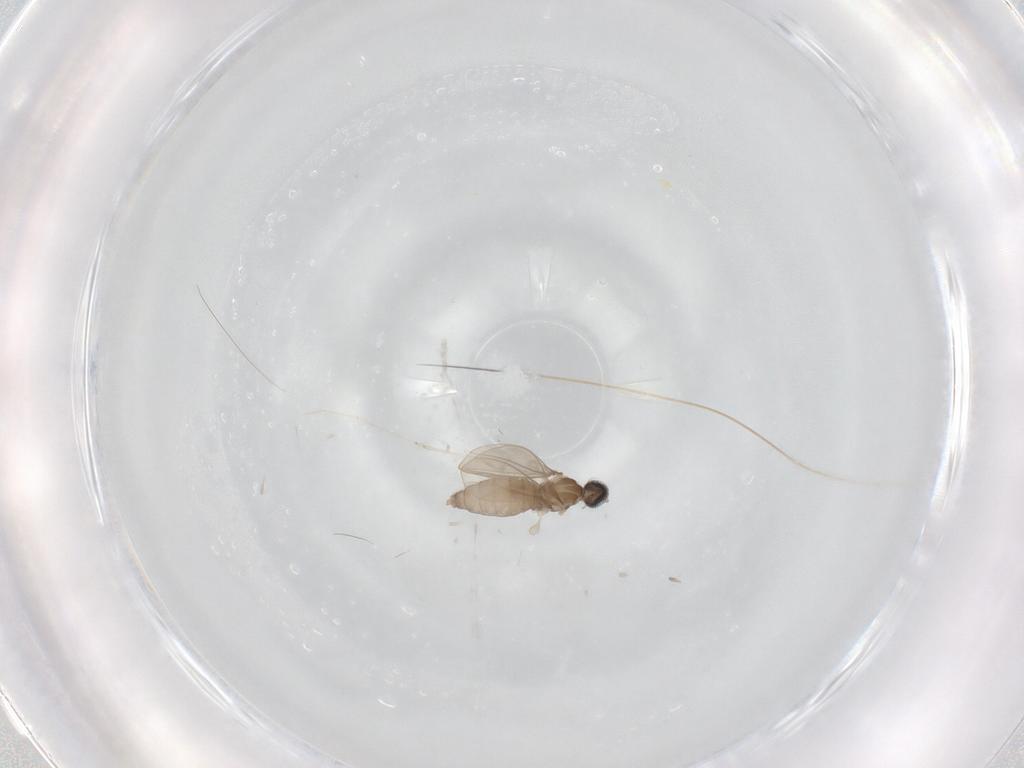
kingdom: Animalia
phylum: Arthropoda
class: Insecta
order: Diptera
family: Cecidomyiidae
